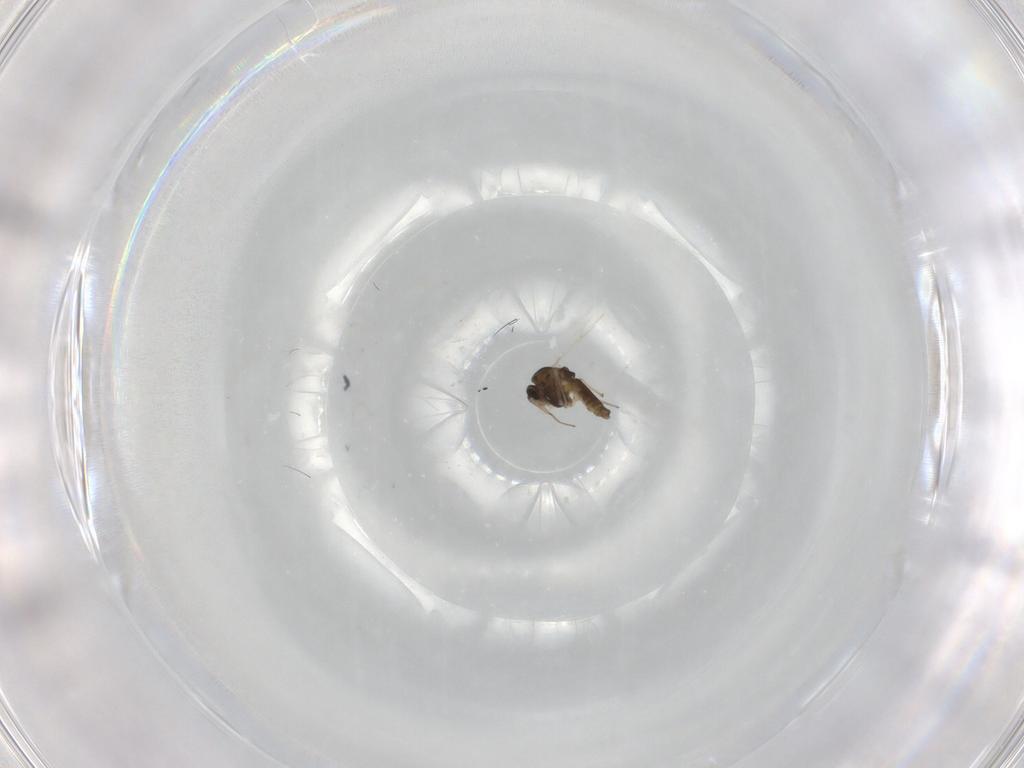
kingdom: Animalia
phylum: Arthropoda
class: Insecta
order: Diptera
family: Chironomidae
